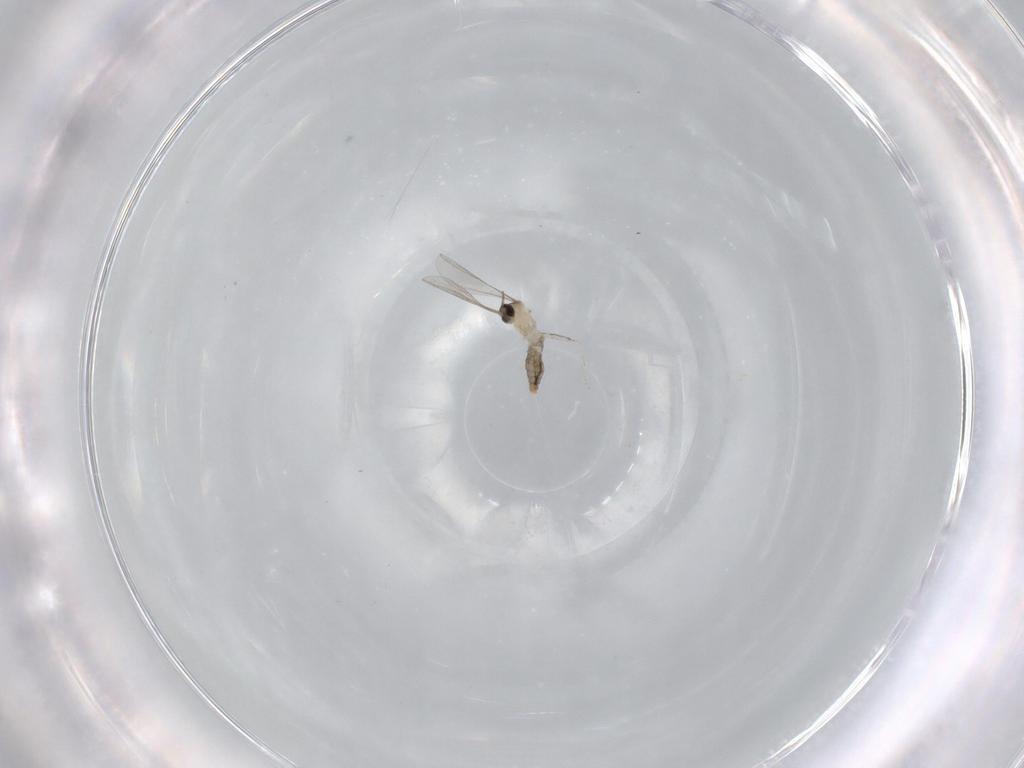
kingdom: Animalia
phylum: Arthropoda
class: Insecta
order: Diptera
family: Cecidomyiidae
